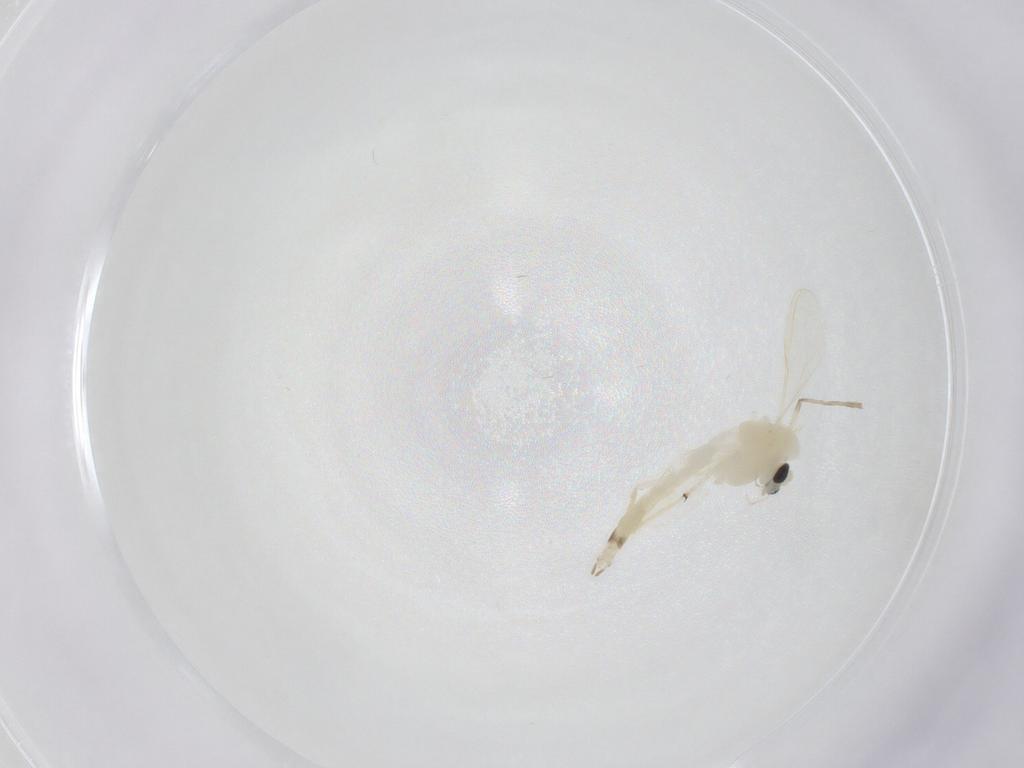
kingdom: Animalia
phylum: Arthropoda
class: Insecta
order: Diptera
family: Chironomidae
